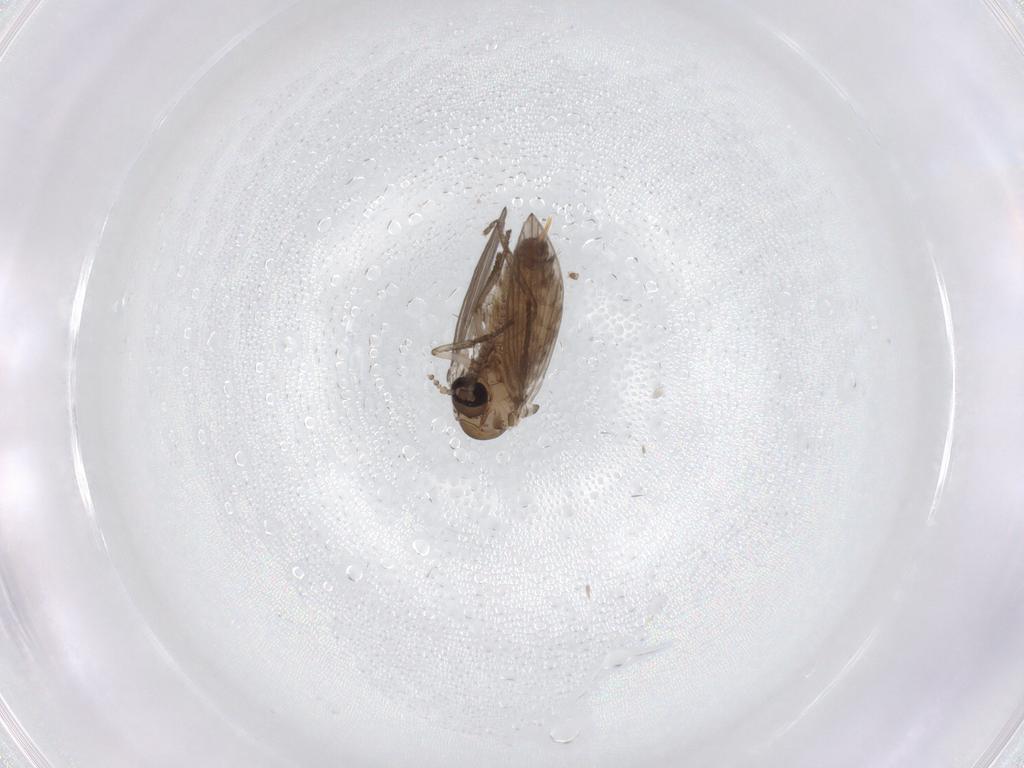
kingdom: Animalia
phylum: Arthropoda
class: Insecta
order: Diptera
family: Psychodidae
